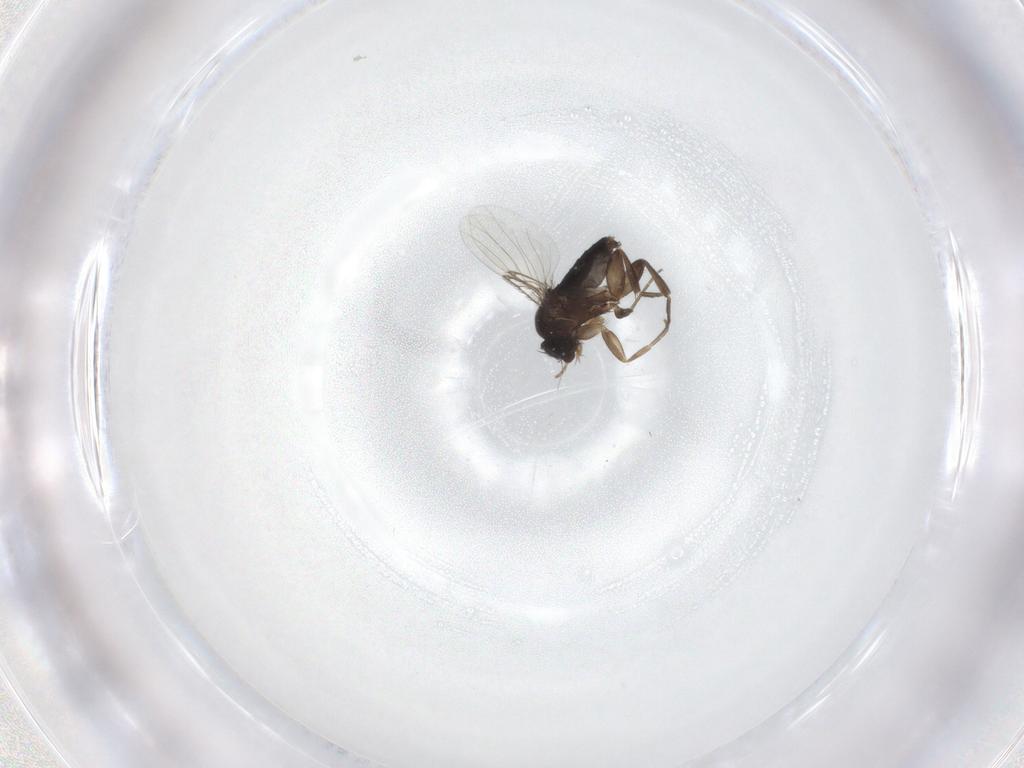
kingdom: Animalia
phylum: Arthropoda
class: Insecta
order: Diptera
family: Phoridae
